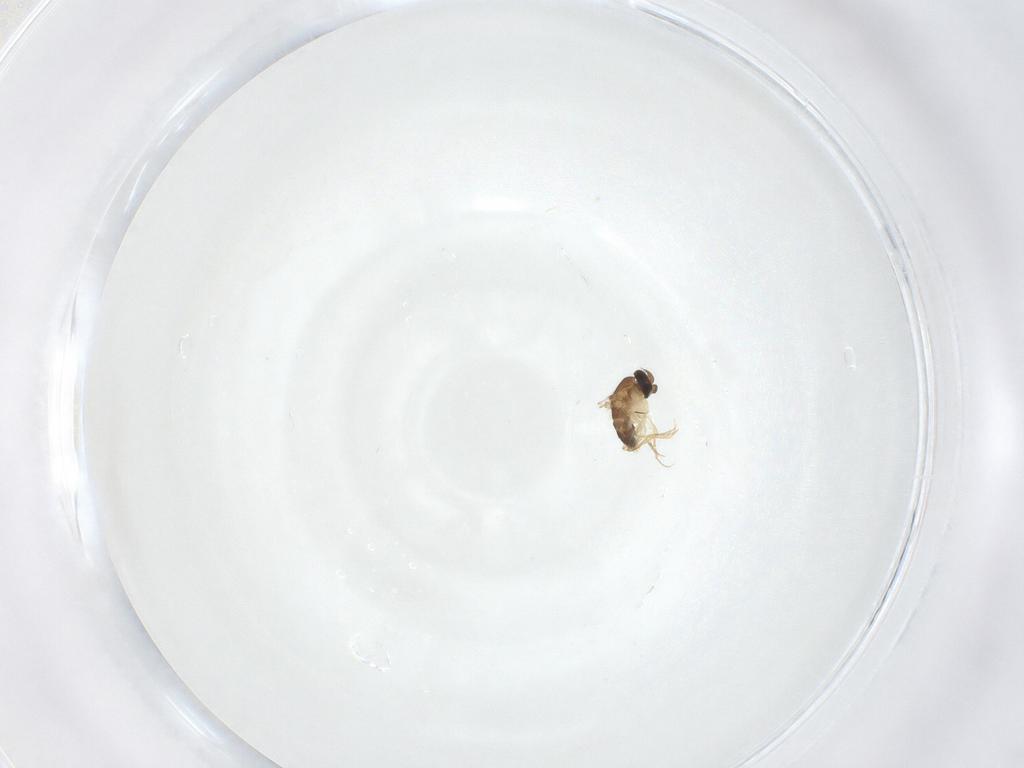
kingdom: Animalia
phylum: Arthropoda
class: Insecta
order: Diptera
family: Phoridae
